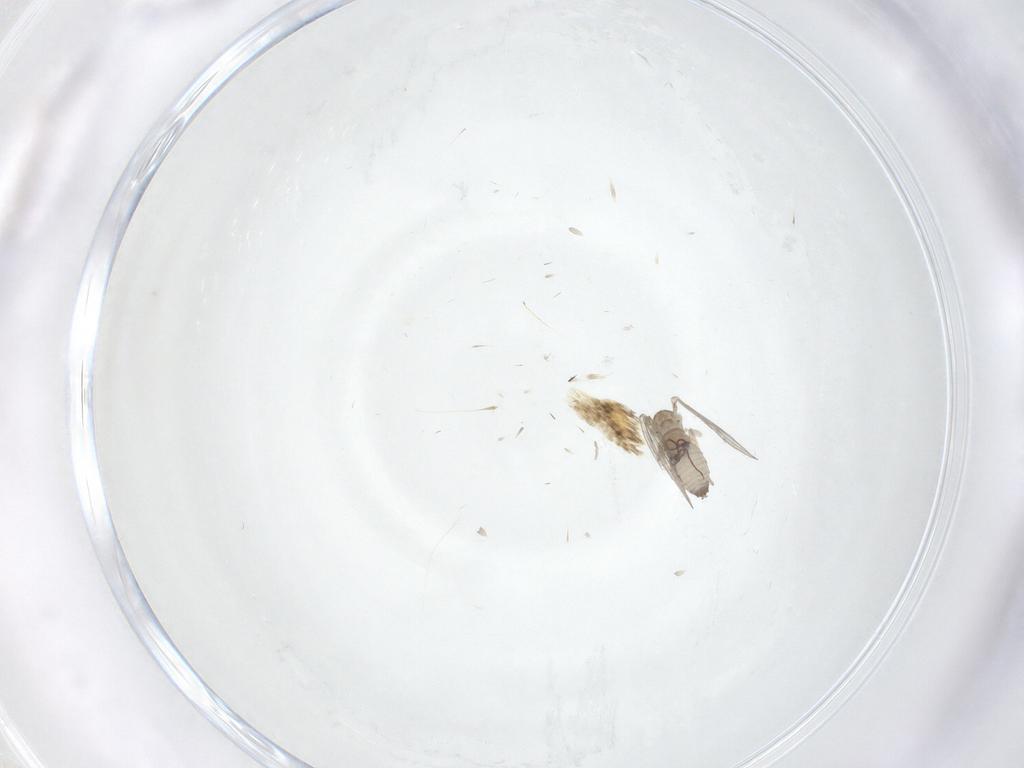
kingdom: Animalia
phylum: Arthropoda
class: Insecta
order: Diptera
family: Psychodidae
